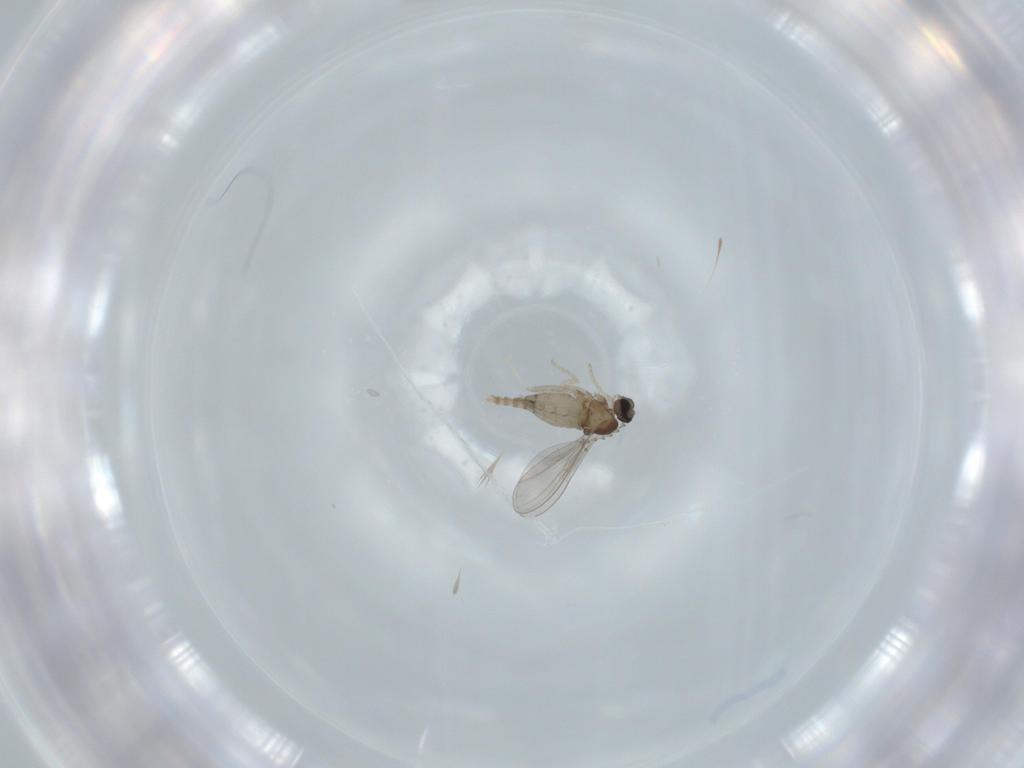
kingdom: Animalia
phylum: Arthropoda
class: Insecta
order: Diptera
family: Cecidomyiidae
